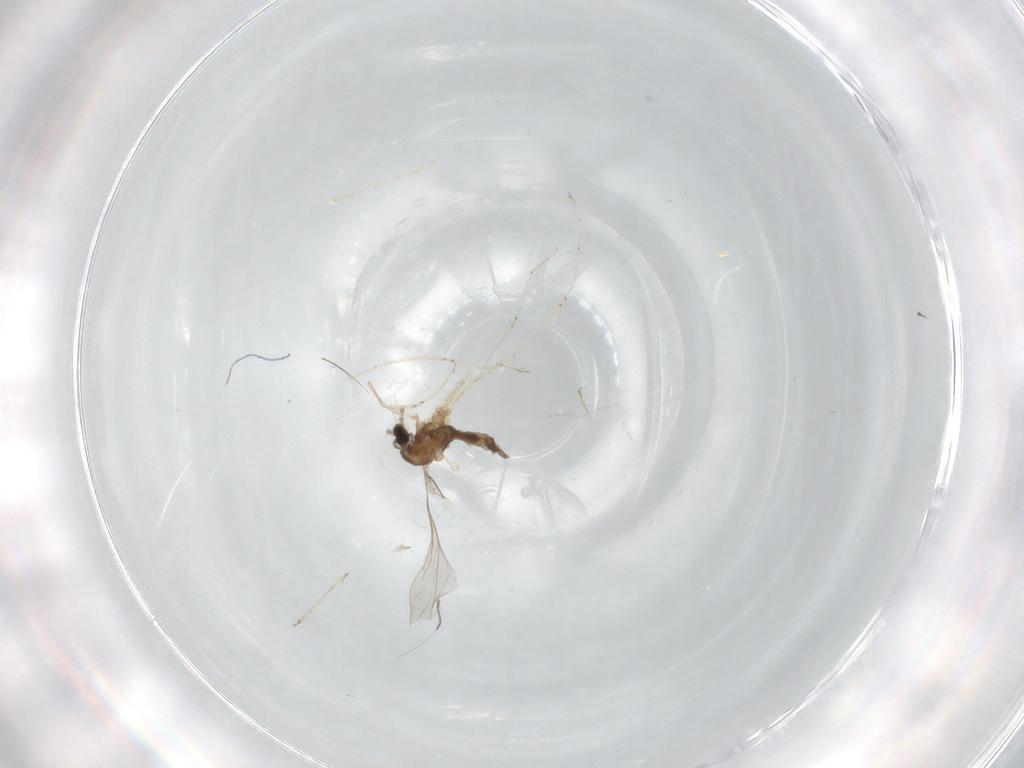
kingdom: Animalia
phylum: Arthropoda
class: Insecta
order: Diptera
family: Cecidomyiidae
